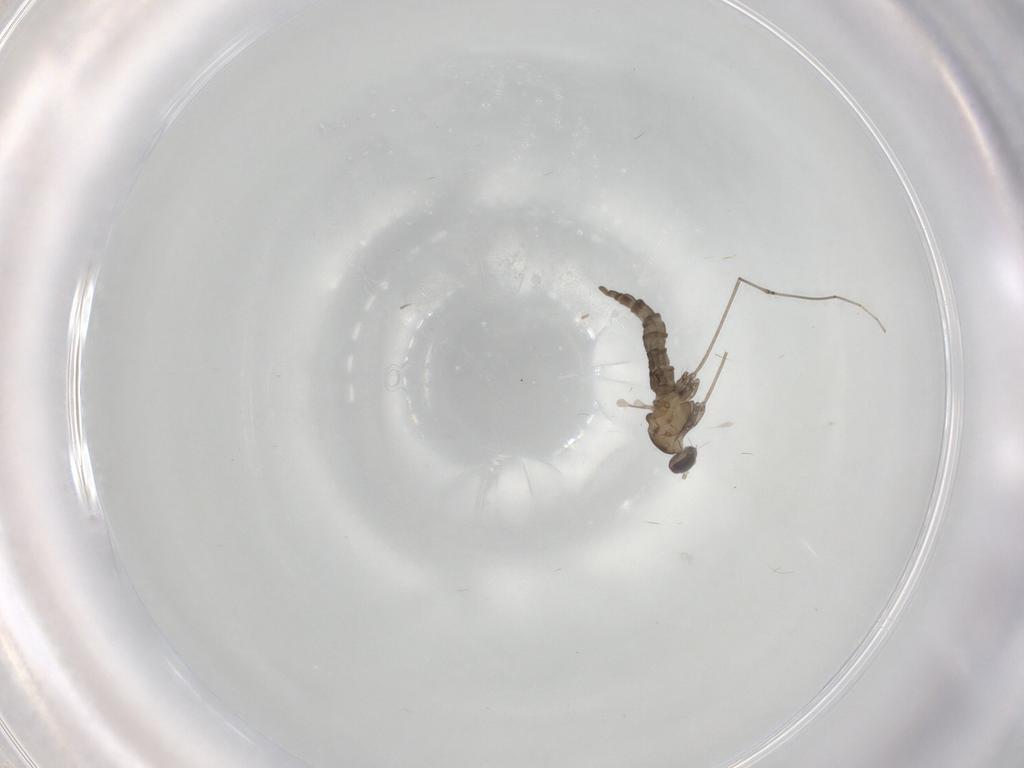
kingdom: Animalia
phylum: Arthropoda
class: Insecta
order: Diptera
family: Cecidomyiidae
